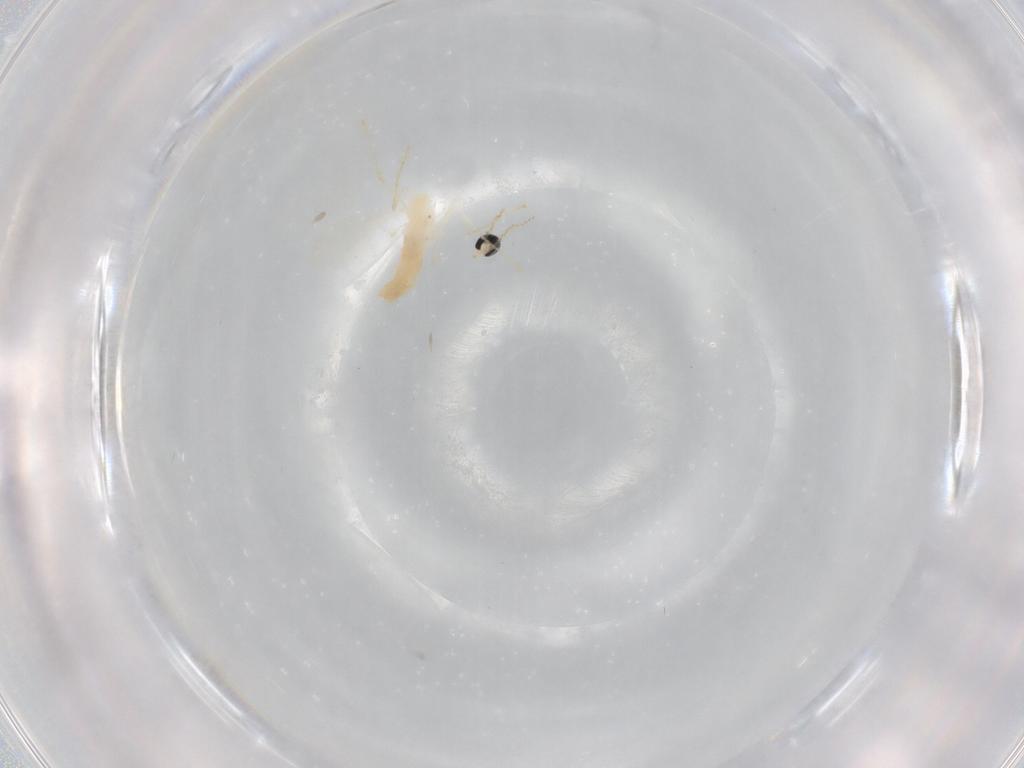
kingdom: Animalia
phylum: Arthropoda
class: Insecta
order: Diptera
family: Cecidomyiidae
